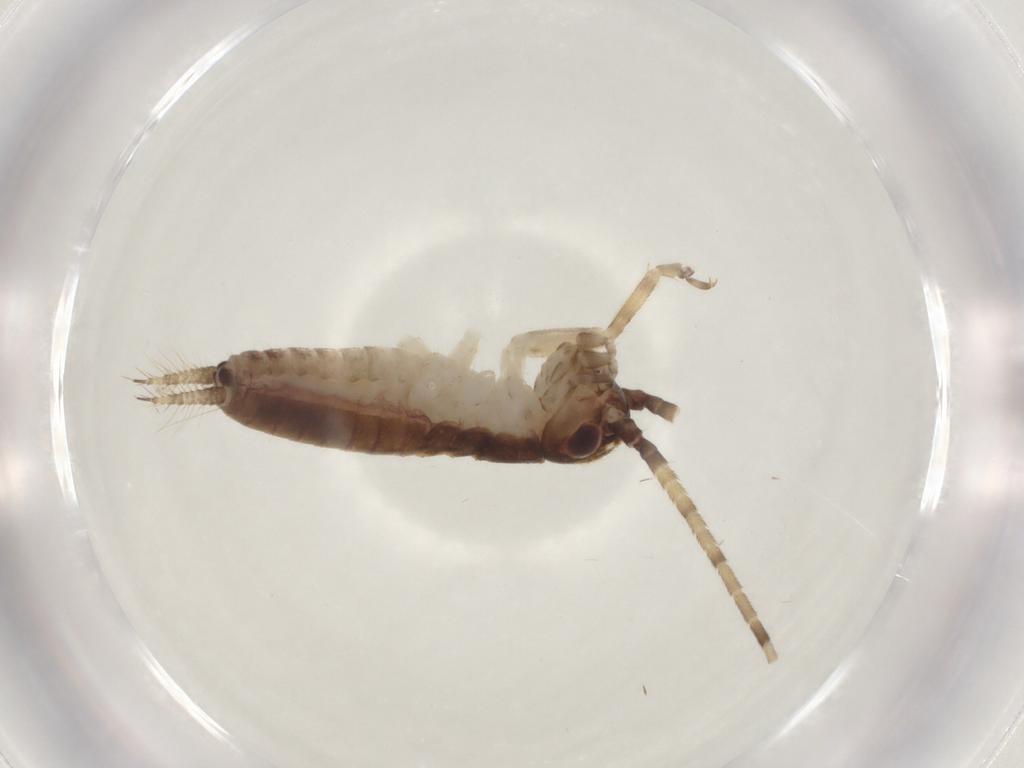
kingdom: Animalia
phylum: Arthropoda
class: Insecta
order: Orthoptera
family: Gryllidae
